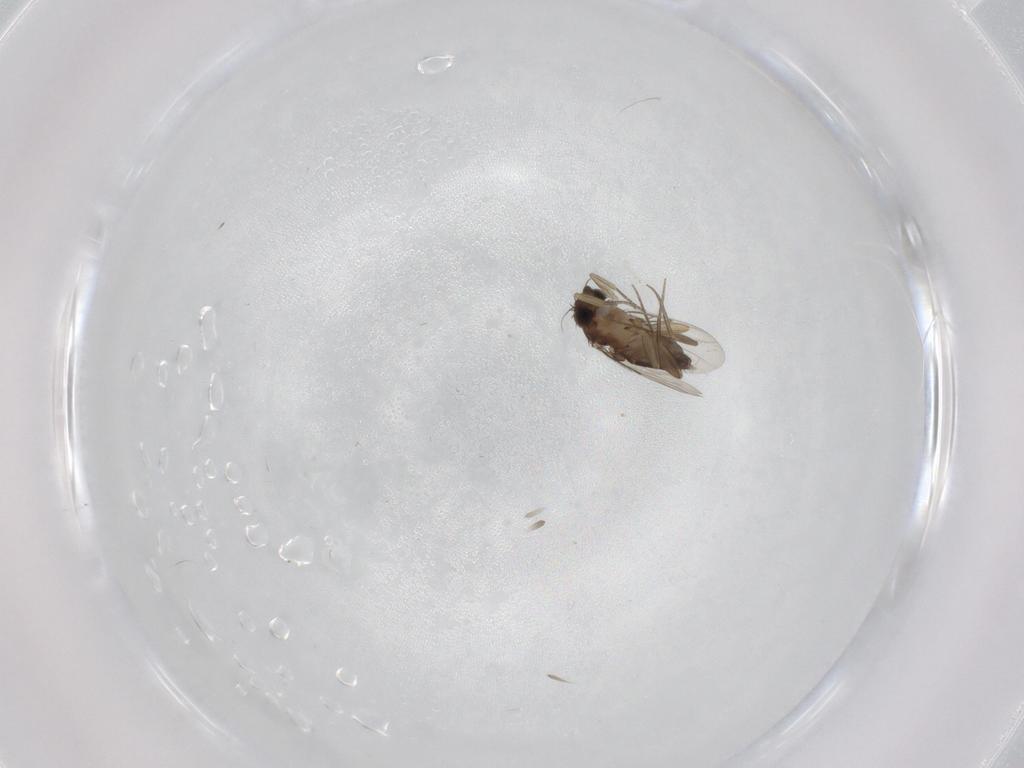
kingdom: Animalia
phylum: Arthropoda
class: Insecta
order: Diptera
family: Phoridae
